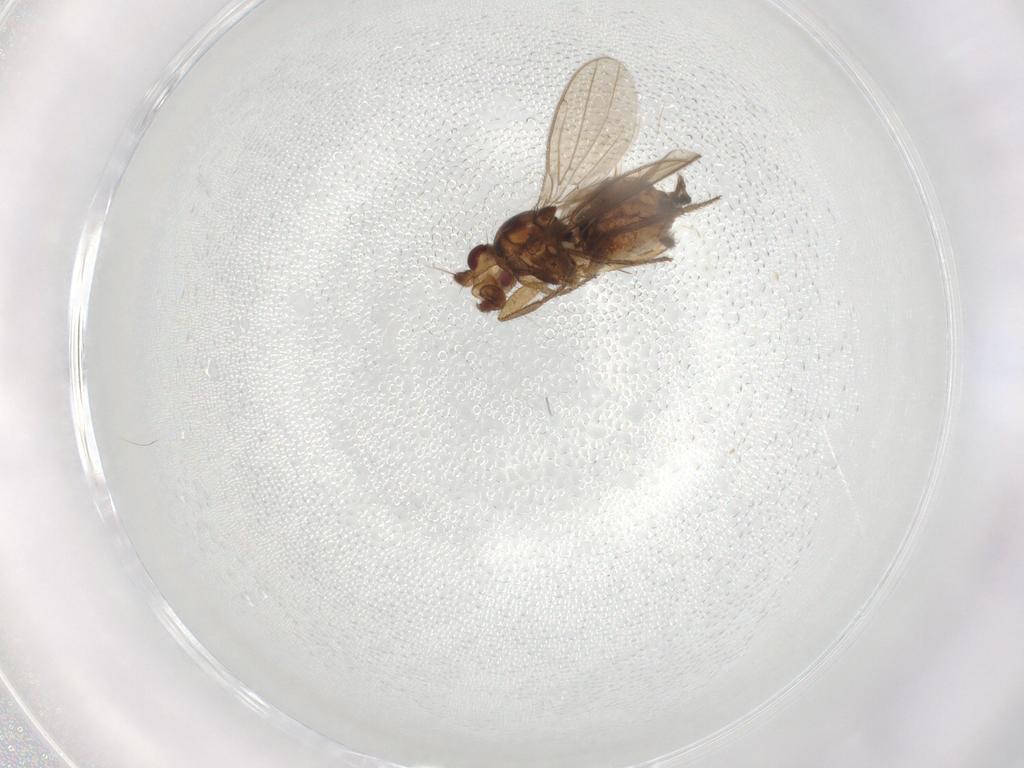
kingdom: Animalia
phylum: Arthropoda
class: Insecta
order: Diptera
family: Sphaeroceridae
